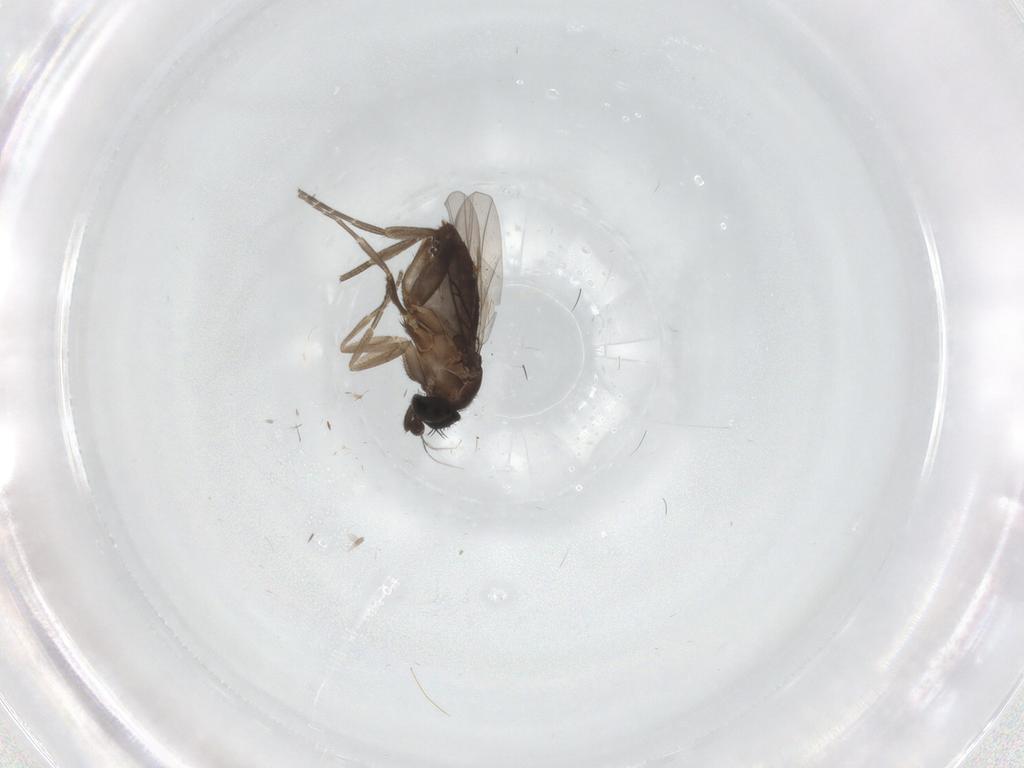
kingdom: Animalia
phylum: Arthropoda
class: Insecta
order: Diptera
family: Phoridae
